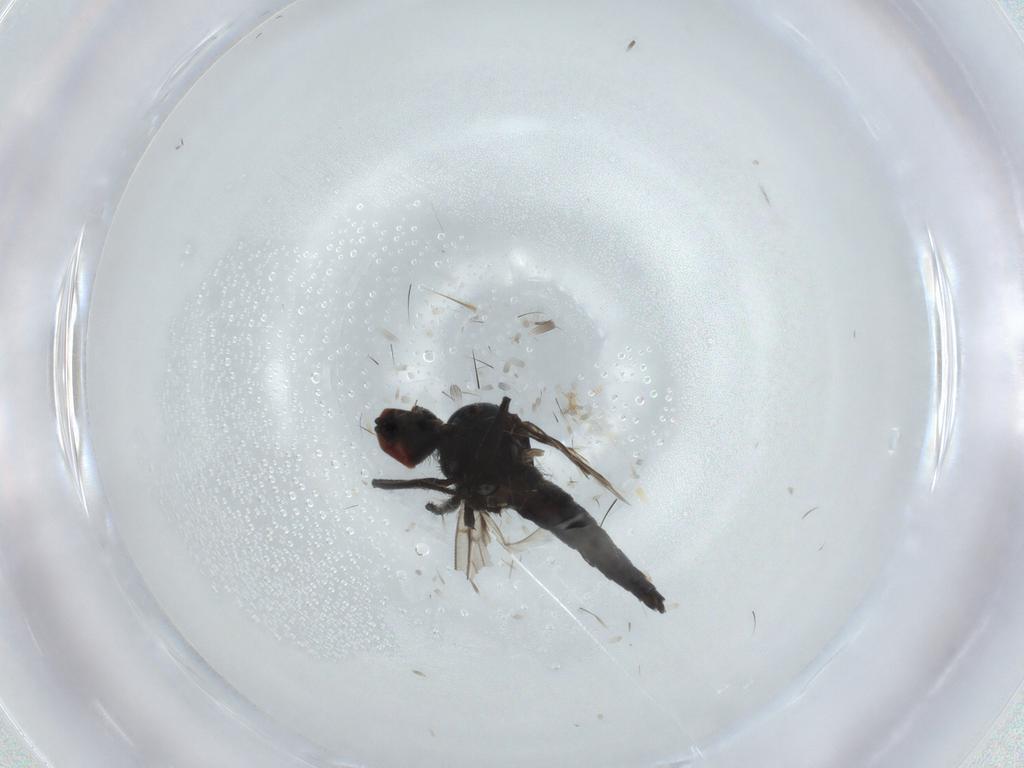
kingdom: Animalia
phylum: Arthropoda
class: Insecta
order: Diptera
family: Hybotidae
